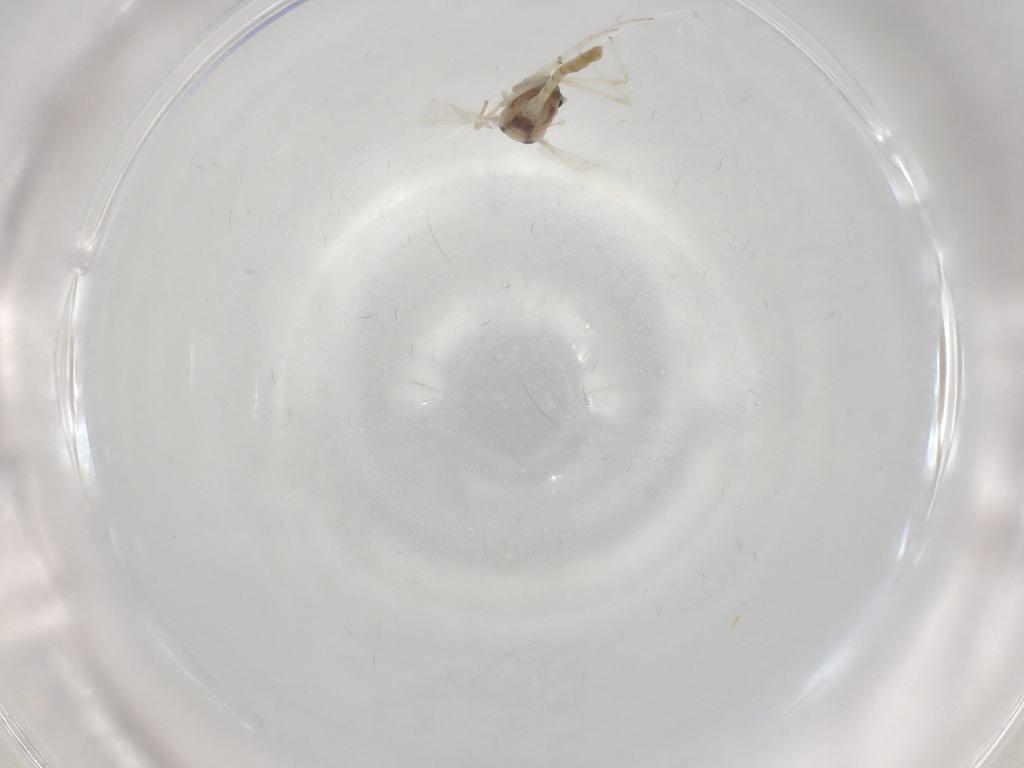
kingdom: Animalia
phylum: Arthropoda
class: Insecta
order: Diptera
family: Chironomidae
